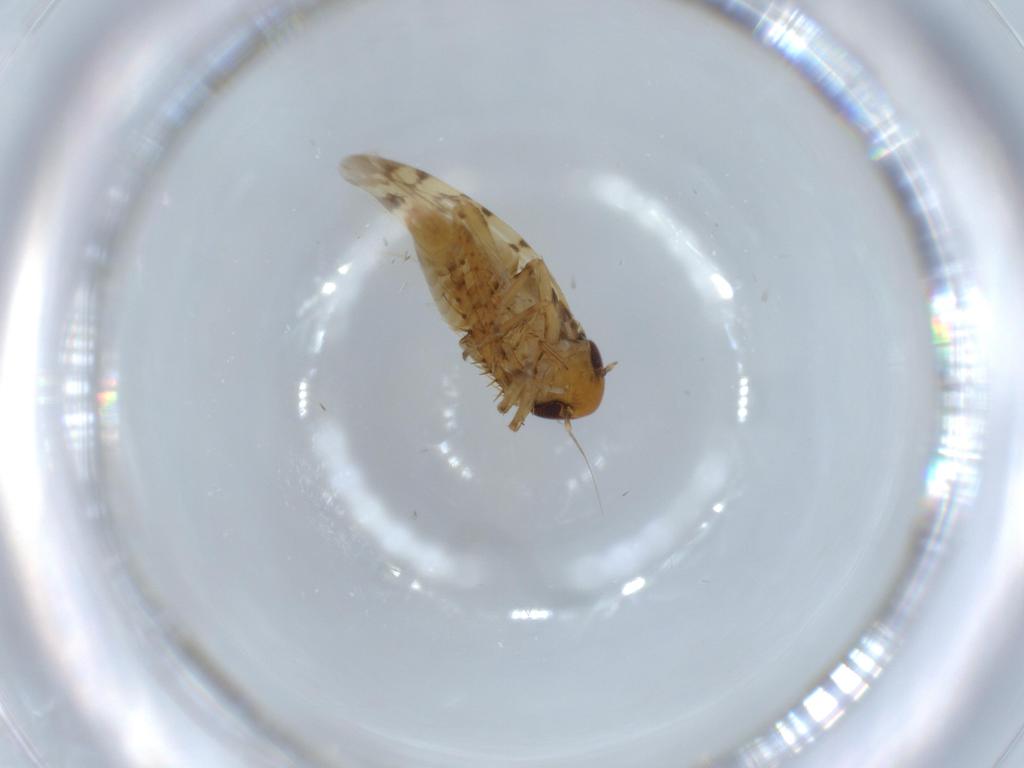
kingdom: Animalia
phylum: Arthropoda
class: Insecta
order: Hemiptera
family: Cicadellidae
